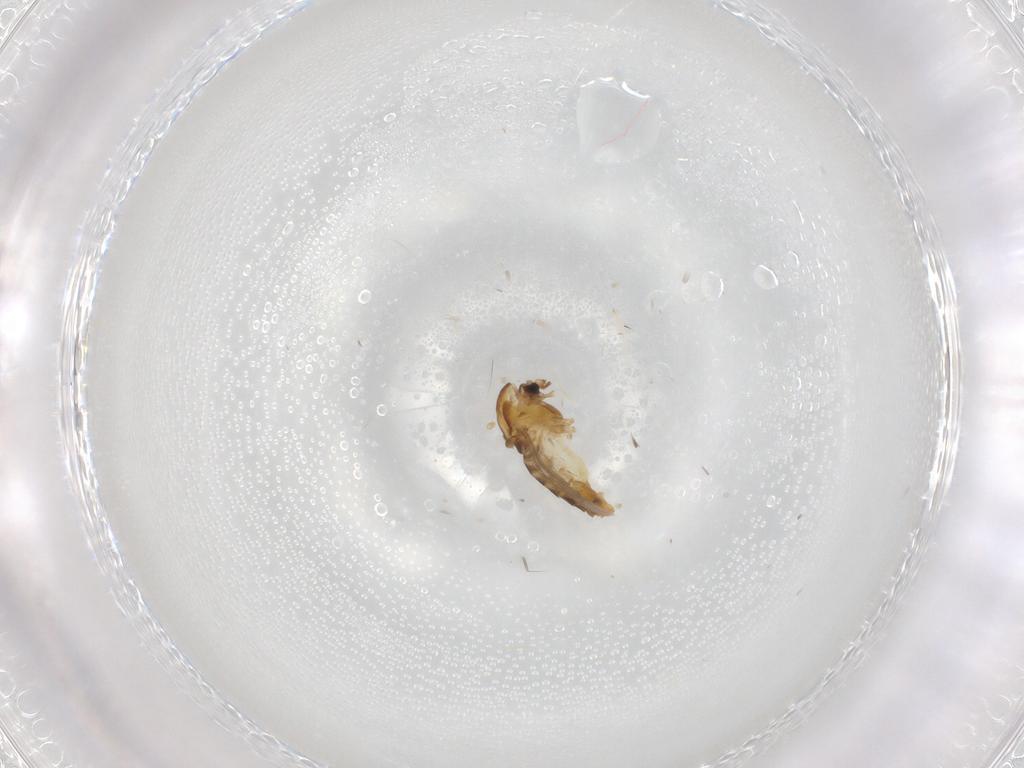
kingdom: Animalia
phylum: Arthropoda
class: Insecta
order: Diptera
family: Chironomidae
